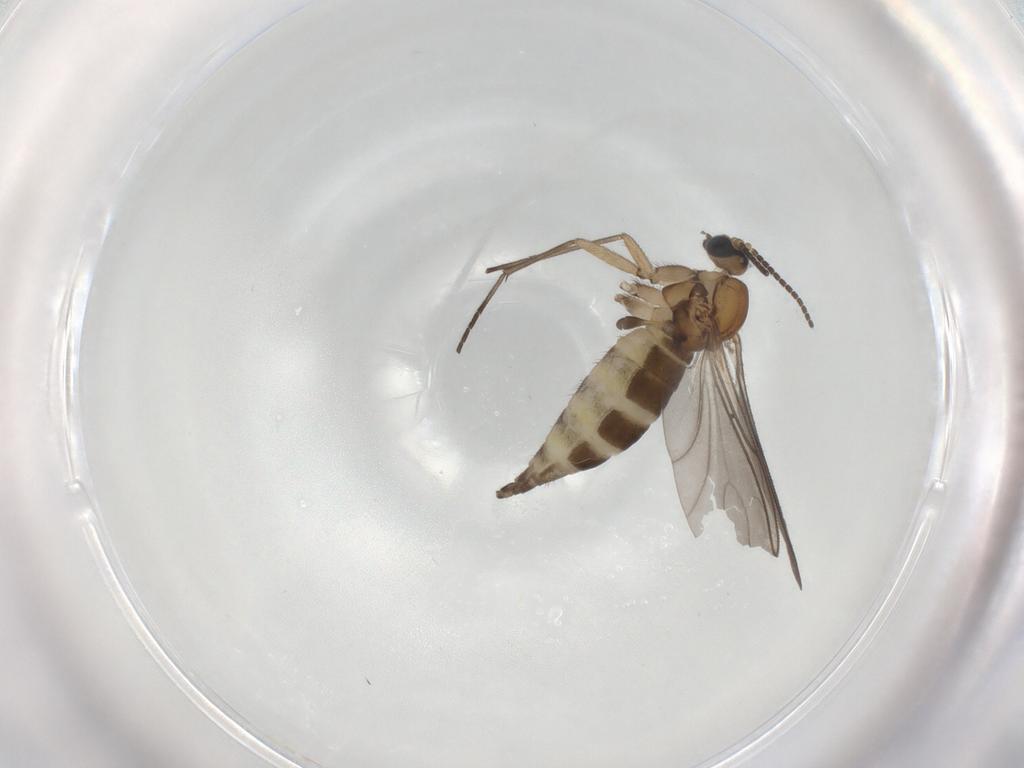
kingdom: Animalia
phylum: Arthropoda
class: Insecta
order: Diptera
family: Sciaridae
